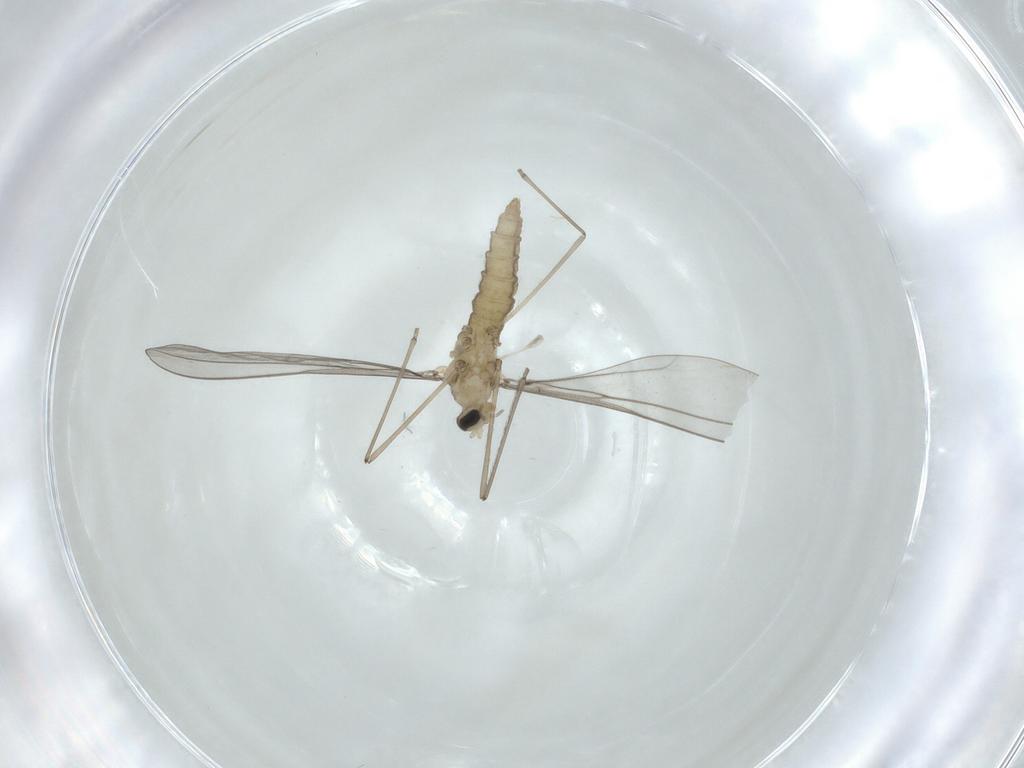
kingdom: Animalia
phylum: Arthropoda
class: Insecta
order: Diptera
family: Cecidomyiidae
